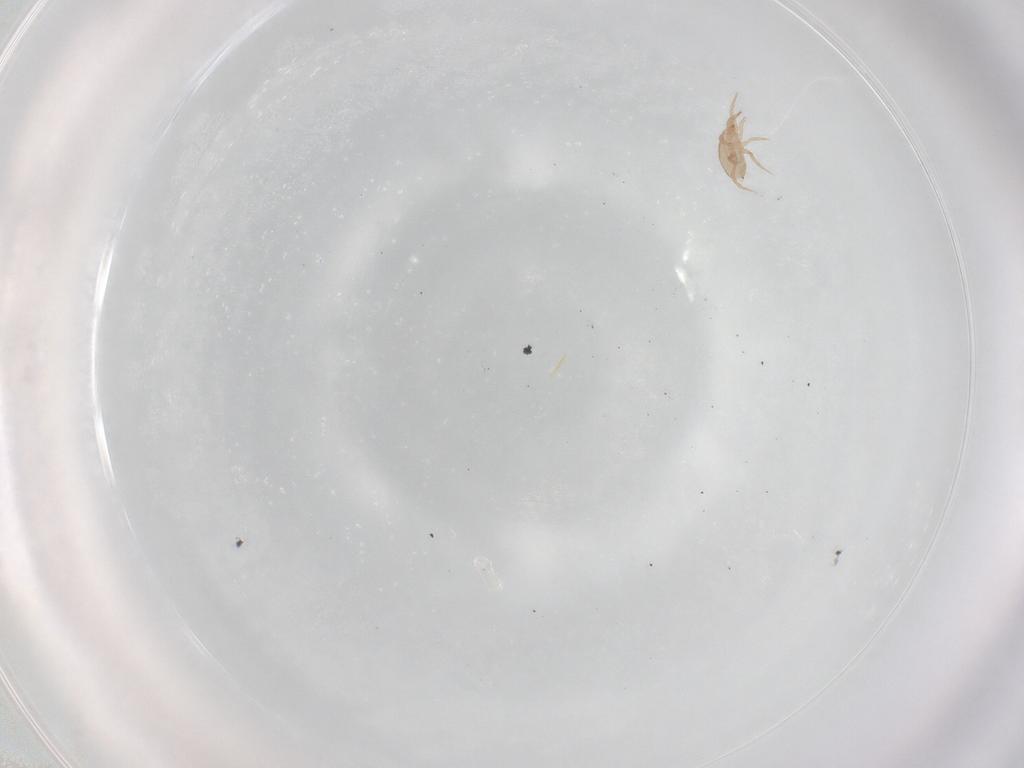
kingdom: Animalia
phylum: Arthropoda
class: Arachnida
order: Mesostigmata
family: Phytoseiidae
